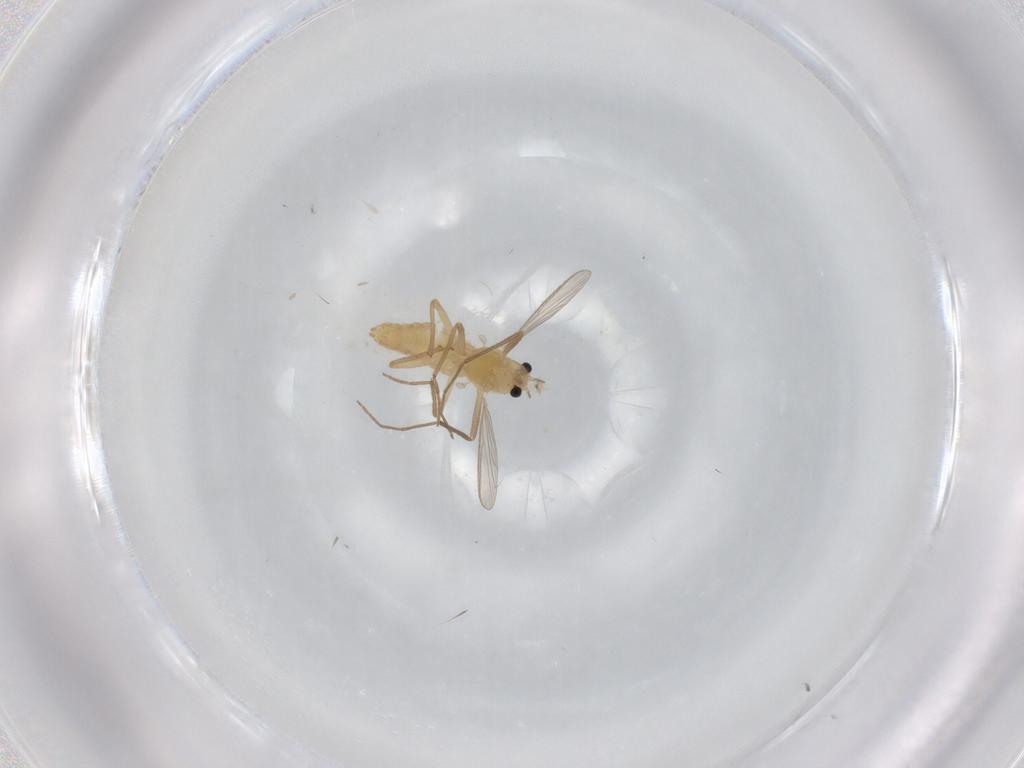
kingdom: Animalia
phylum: Arthropoda
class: Insecta
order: Diptera
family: Chironomidae
